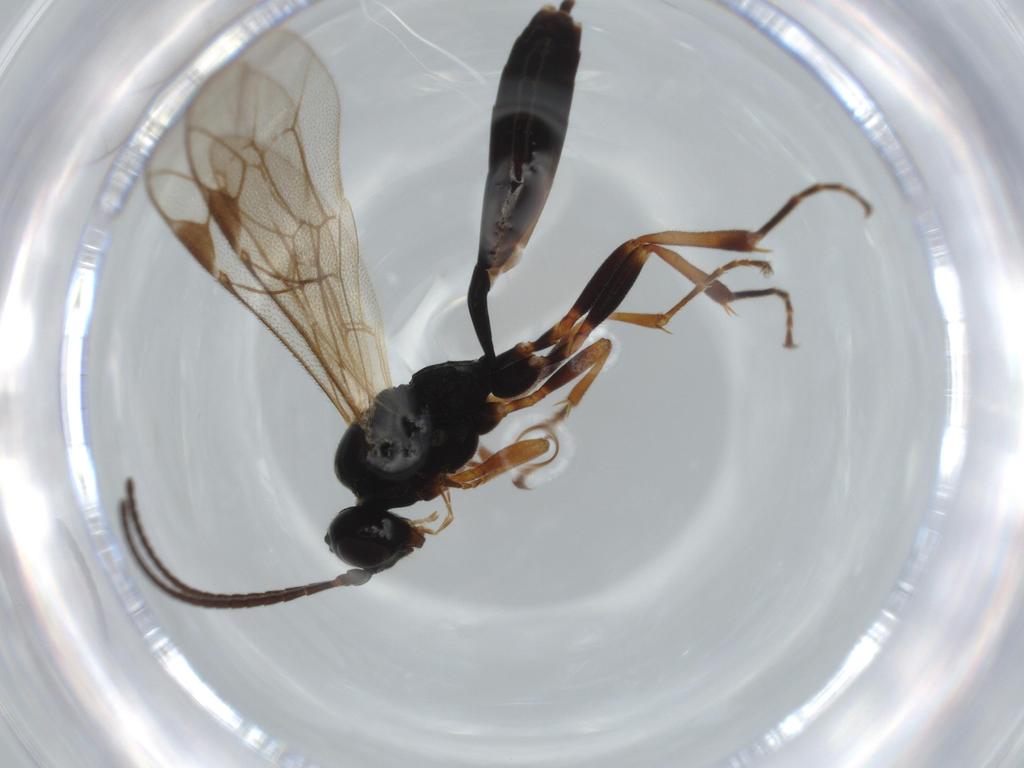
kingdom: Animalia
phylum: Arthropoda
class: Insecta
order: Hymenoptera
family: Ichneumonidae
